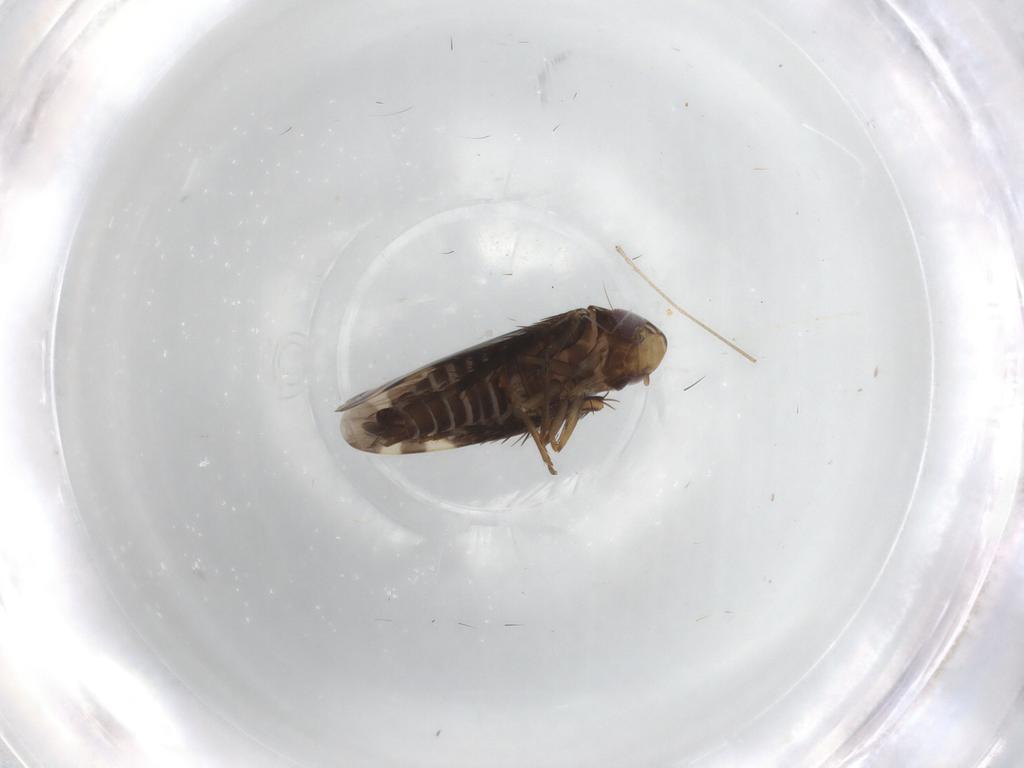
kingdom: Animalia
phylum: Arthropoda
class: Insecta
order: Hemiptera
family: Cicadellidae
